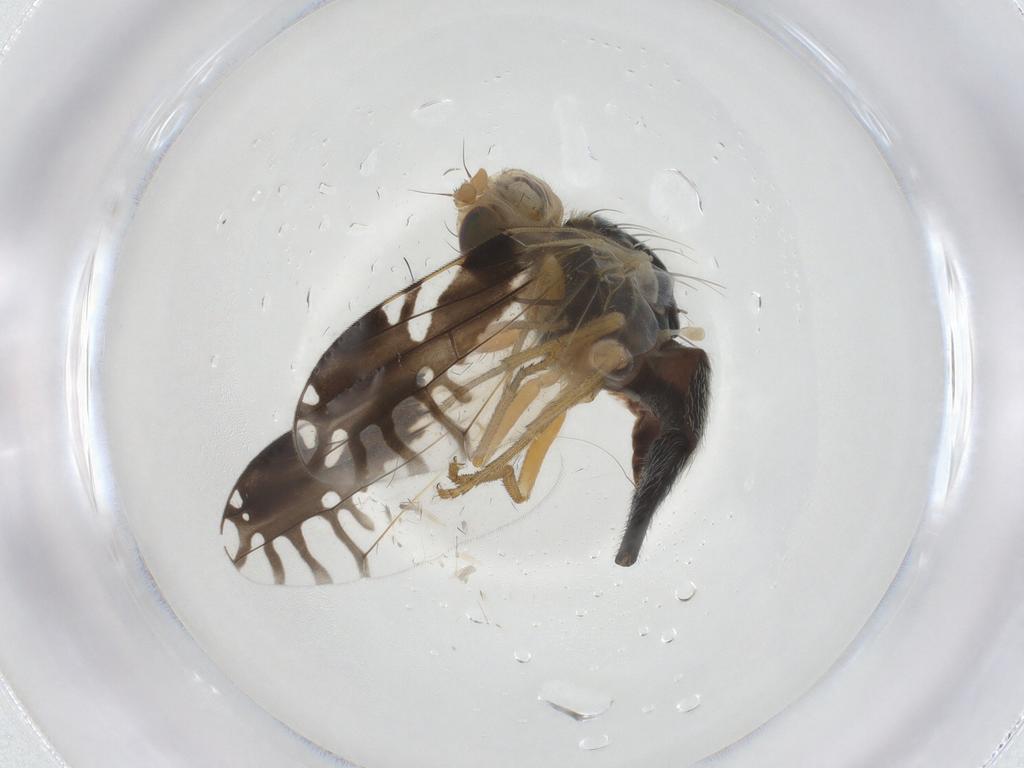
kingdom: Animalia
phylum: Arthropoda
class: Insecta
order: Diptera
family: Tephritidae
